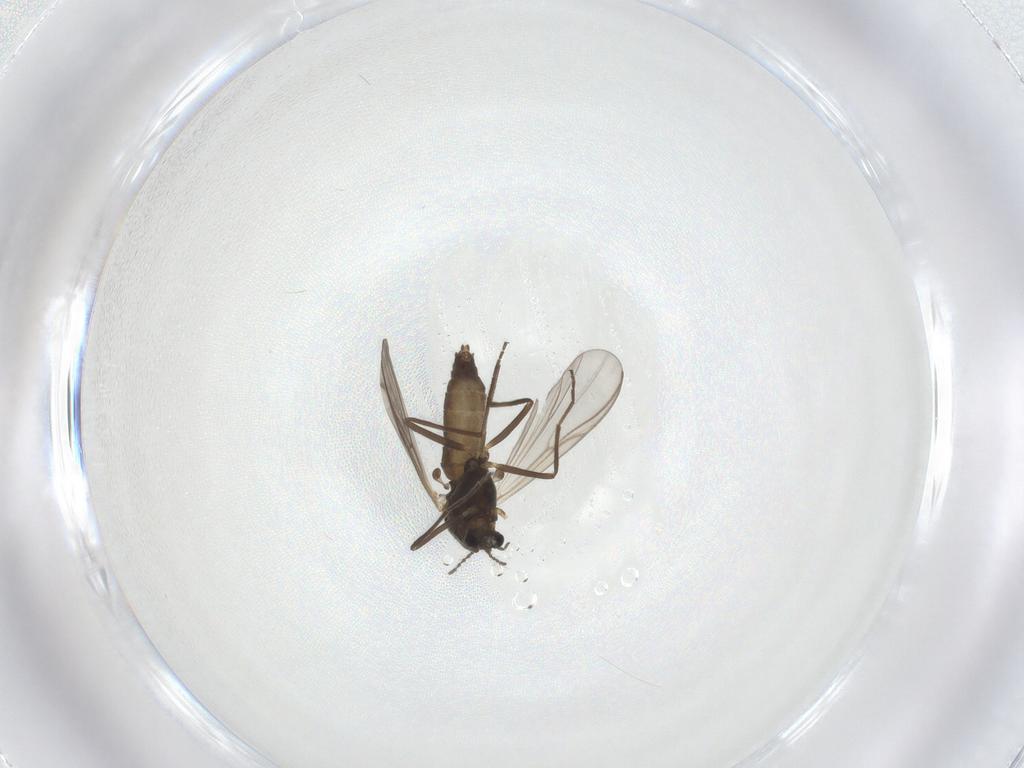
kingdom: Animalia
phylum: Arthropoda
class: Insecta
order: Diptera
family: Chironomidae
